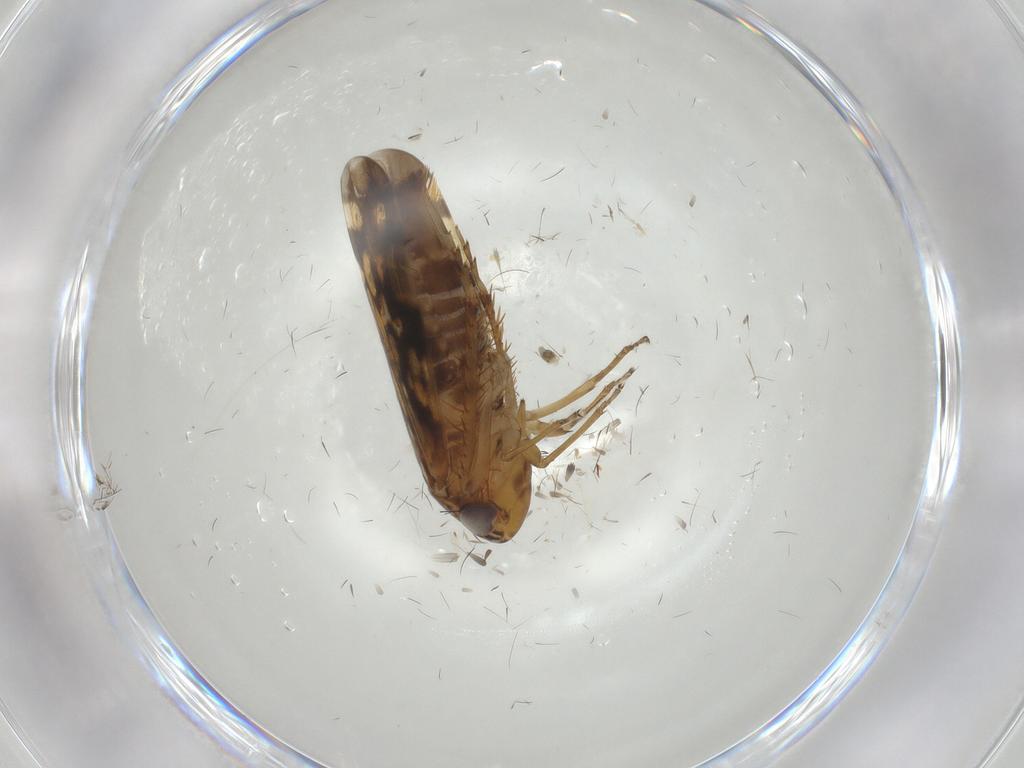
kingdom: Animalia
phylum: Arthropoda
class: Insecta
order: Hemiptera
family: Cicadellidae
